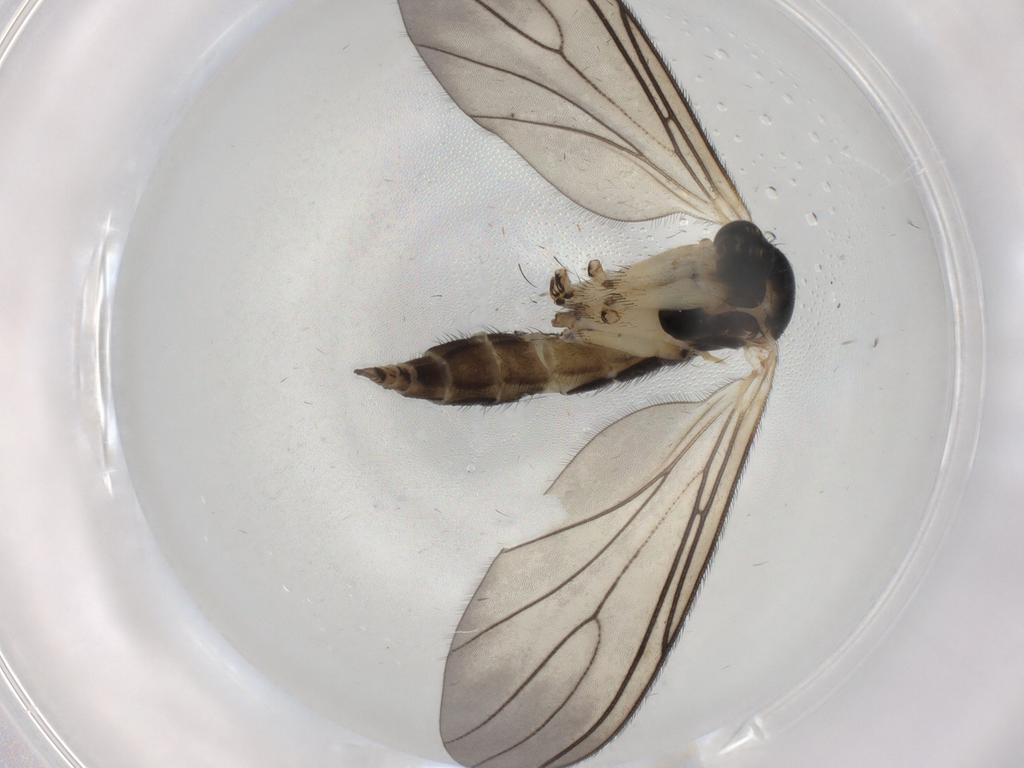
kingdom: Animalia
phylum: Arthropoda
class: Insecta
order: Diptera
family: Sciaridae
